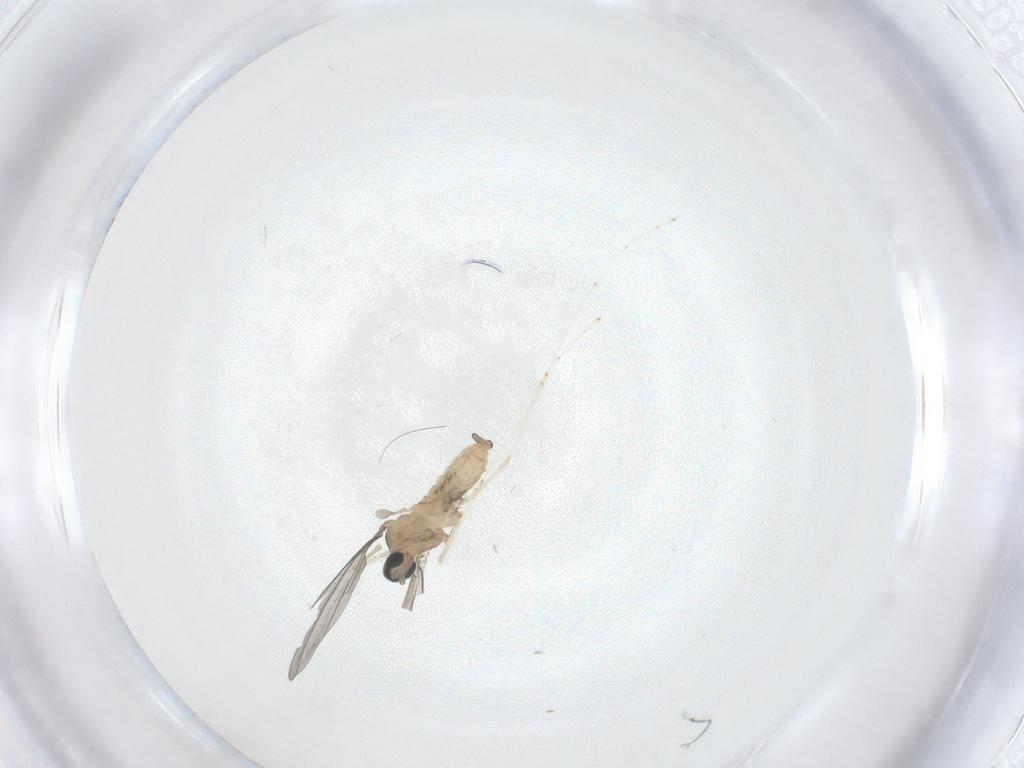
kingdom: Animalia
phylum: Arthropoda
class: Insecta
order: Diptera
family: Cecidomyiidae
